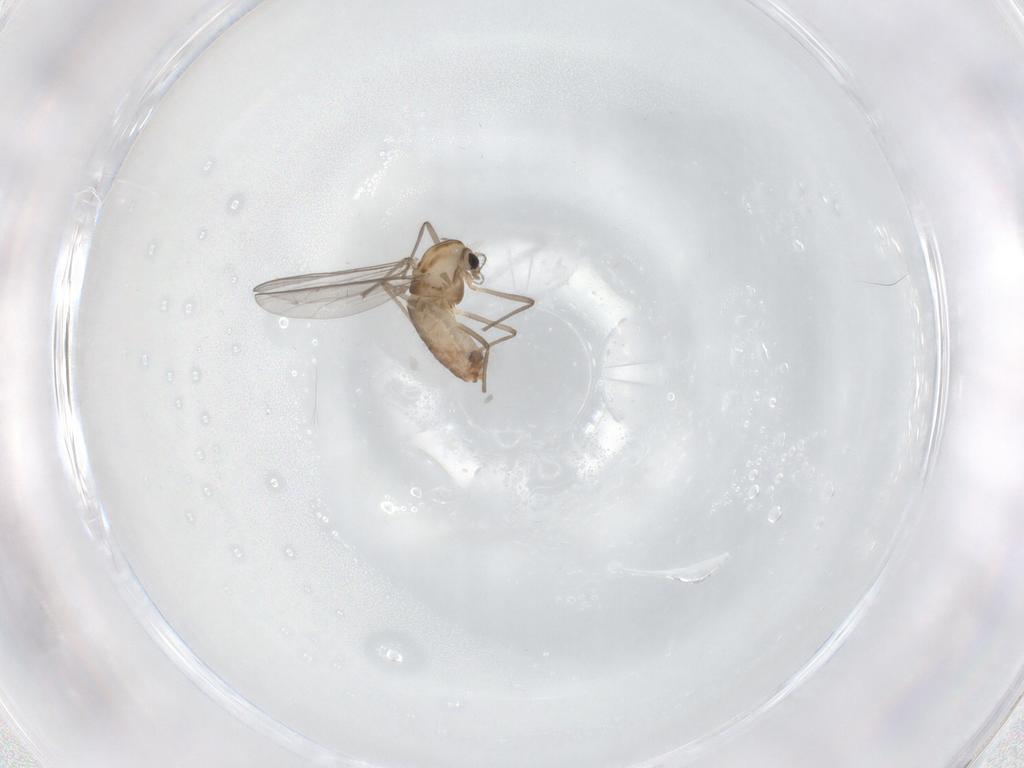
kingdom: Animalia
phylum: Arthropoda
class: Insecta
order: Diptera
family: Chironomidae
